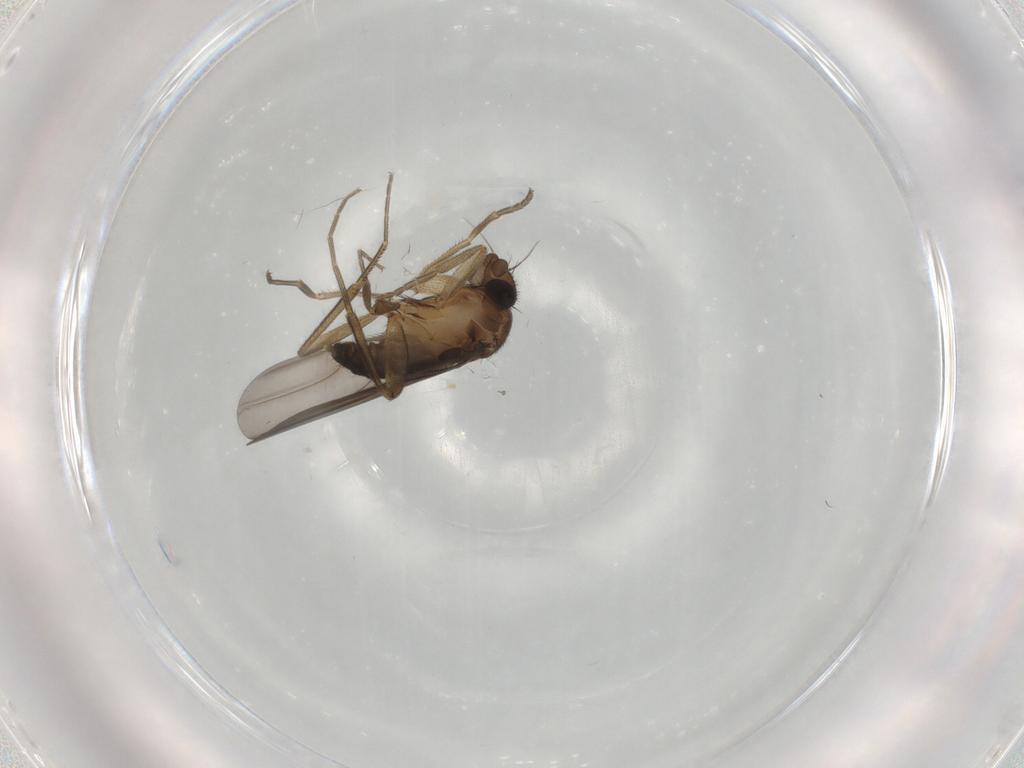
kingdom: Animalia
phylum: Arthropoda
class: Insecta
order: Diptera
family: Phoridae
